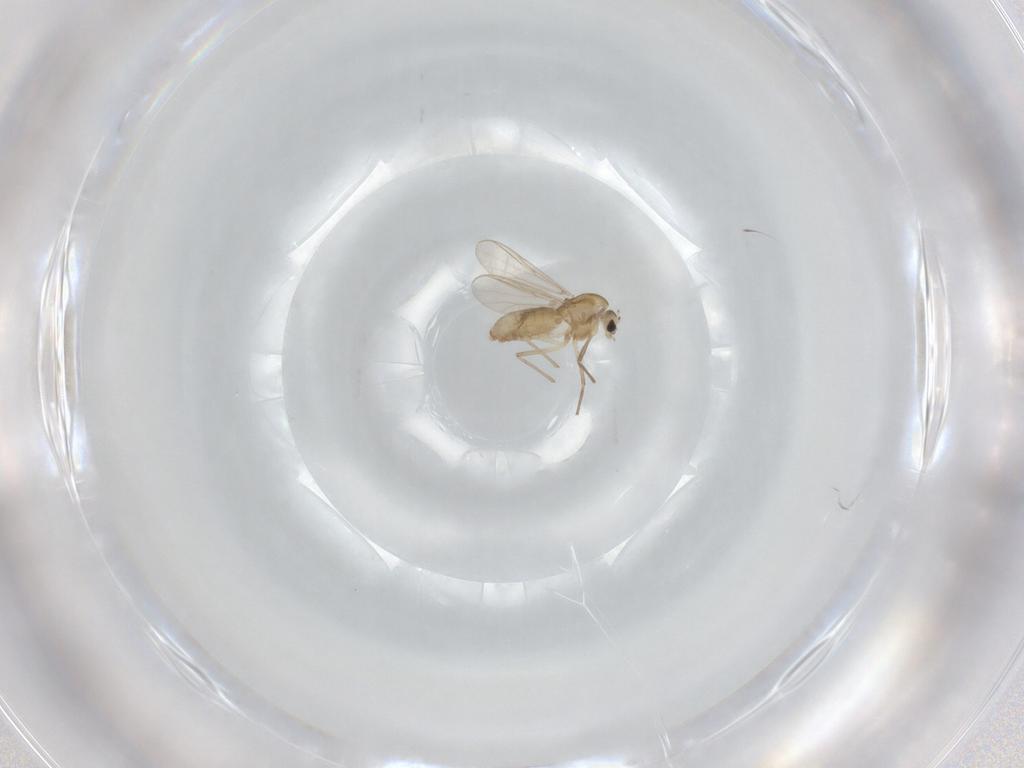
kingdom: Animalia
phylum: Arthropoda
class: Insecta
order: Diptera
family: Chironomidae
